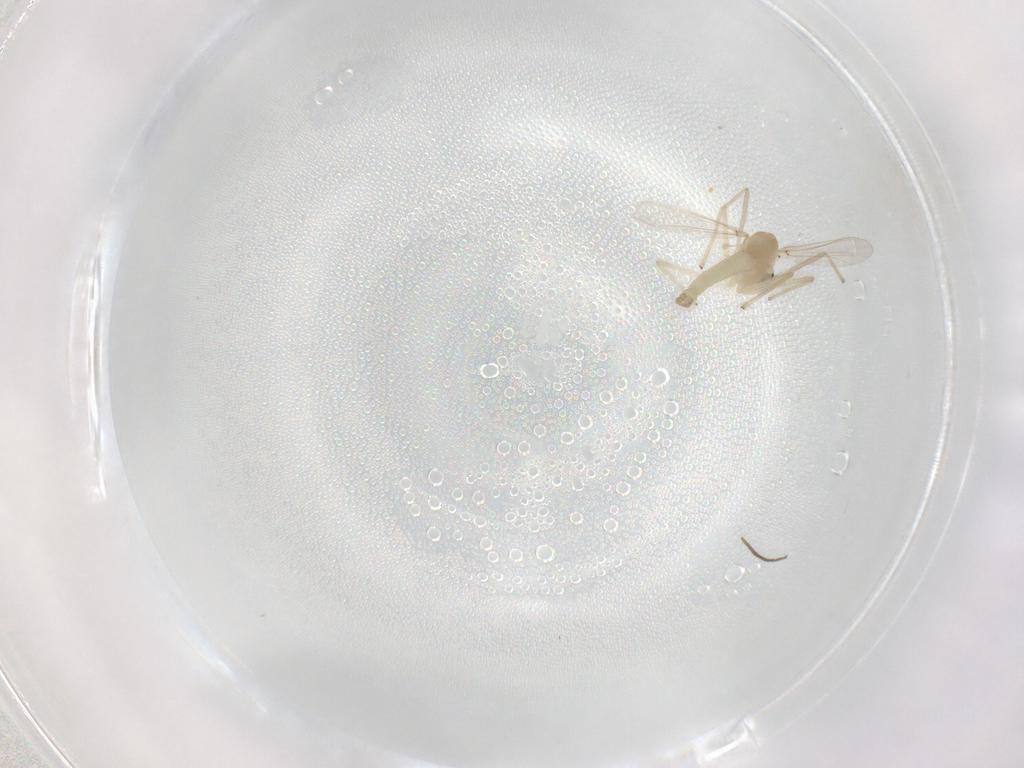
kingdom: Animalia
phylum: Arthropoda
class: Insecta
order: Diptera
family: Chironomidae
